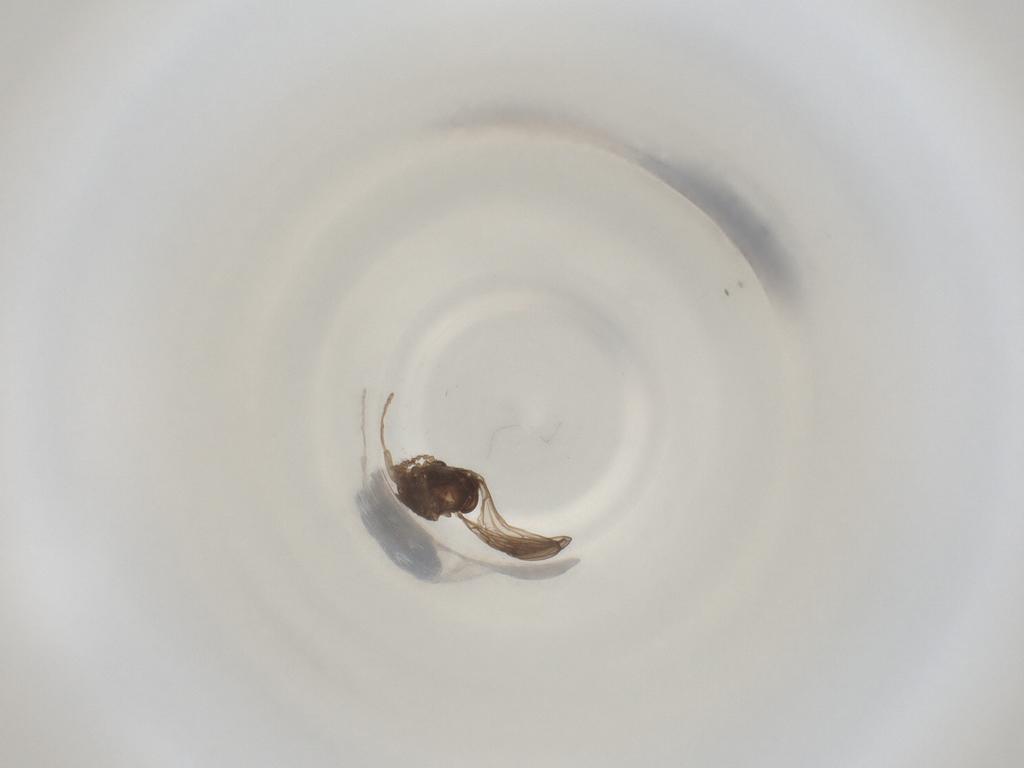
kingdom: Animalia
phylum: Arthropoda
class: Insecta
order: Diptera
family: Cecidomyiidae
